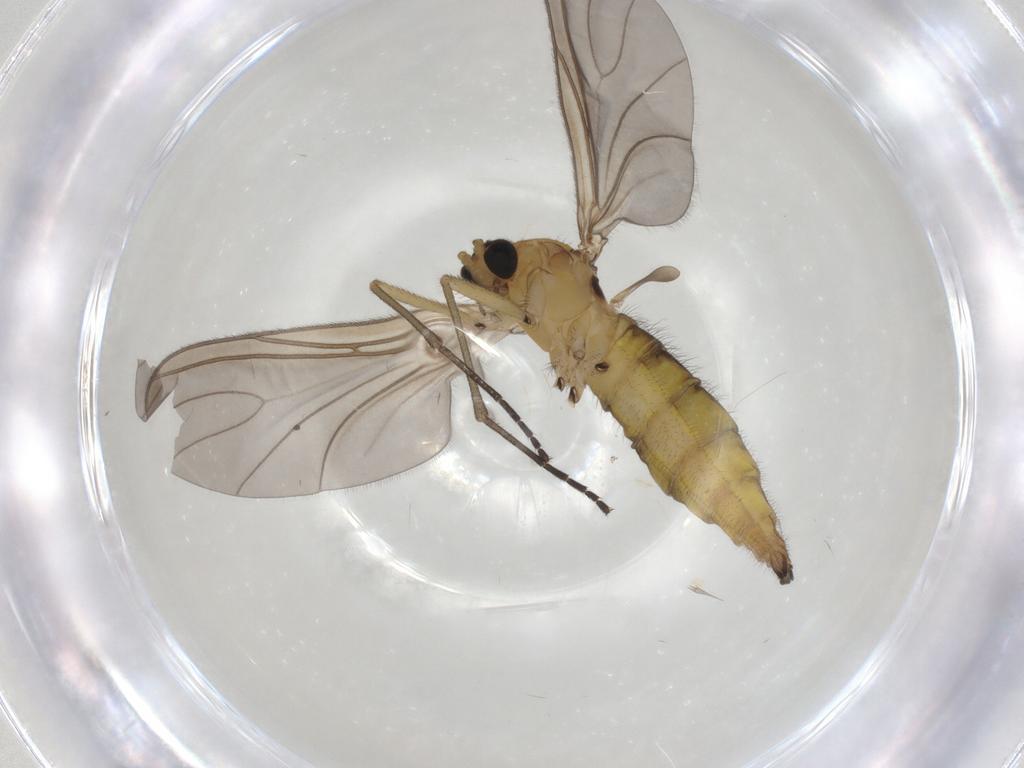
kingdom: Animalia
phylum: Arthropoda
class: Insecta
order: Diptera
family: Sciaridae
